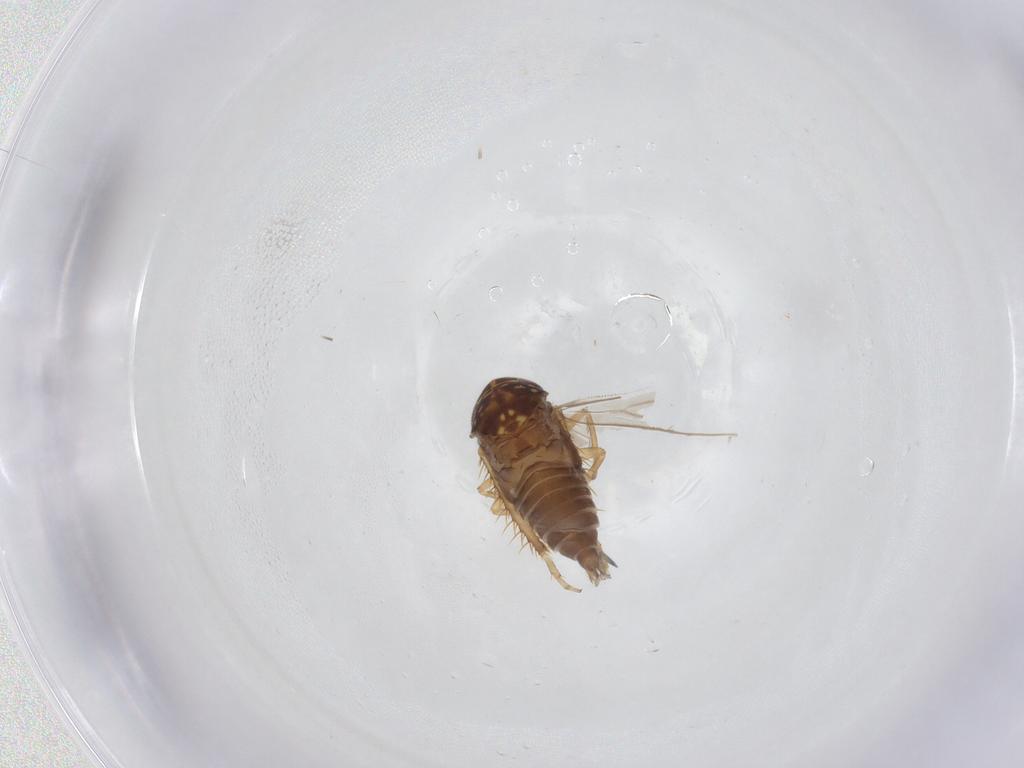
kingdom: Animalia
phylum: Arthropoda
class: Insecta
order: Hemiptera
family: Cicadellidae
